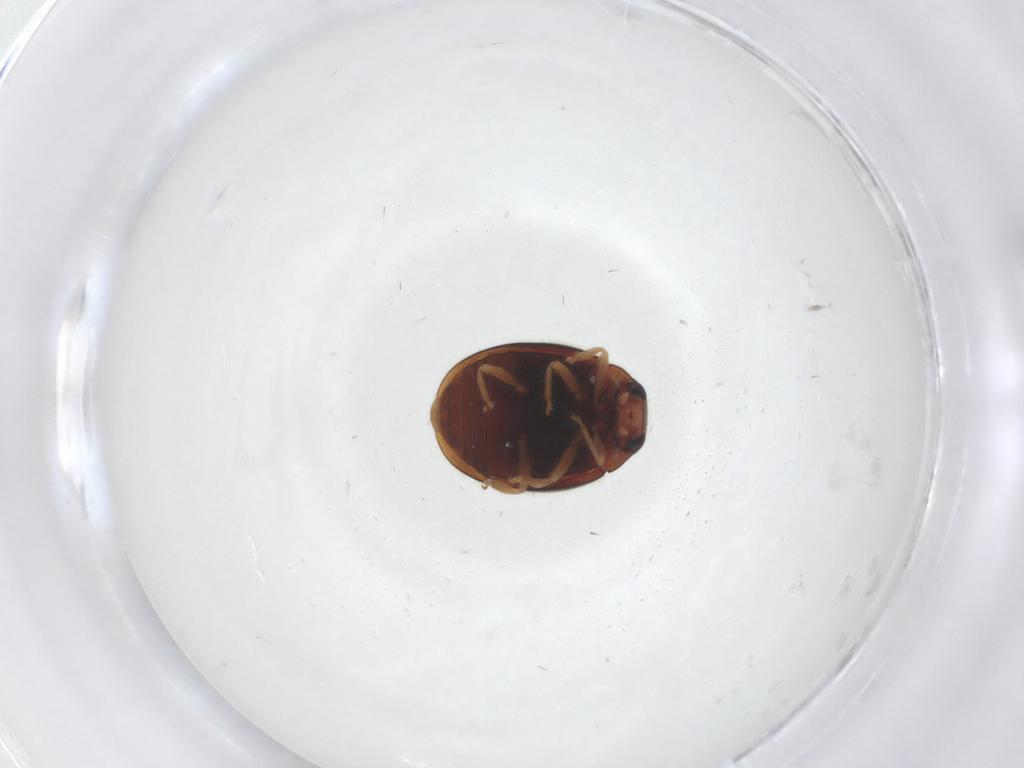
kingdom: Animalia
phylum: Arthropoda
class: Insecta
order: Coleoptera
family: Coccinellidae
